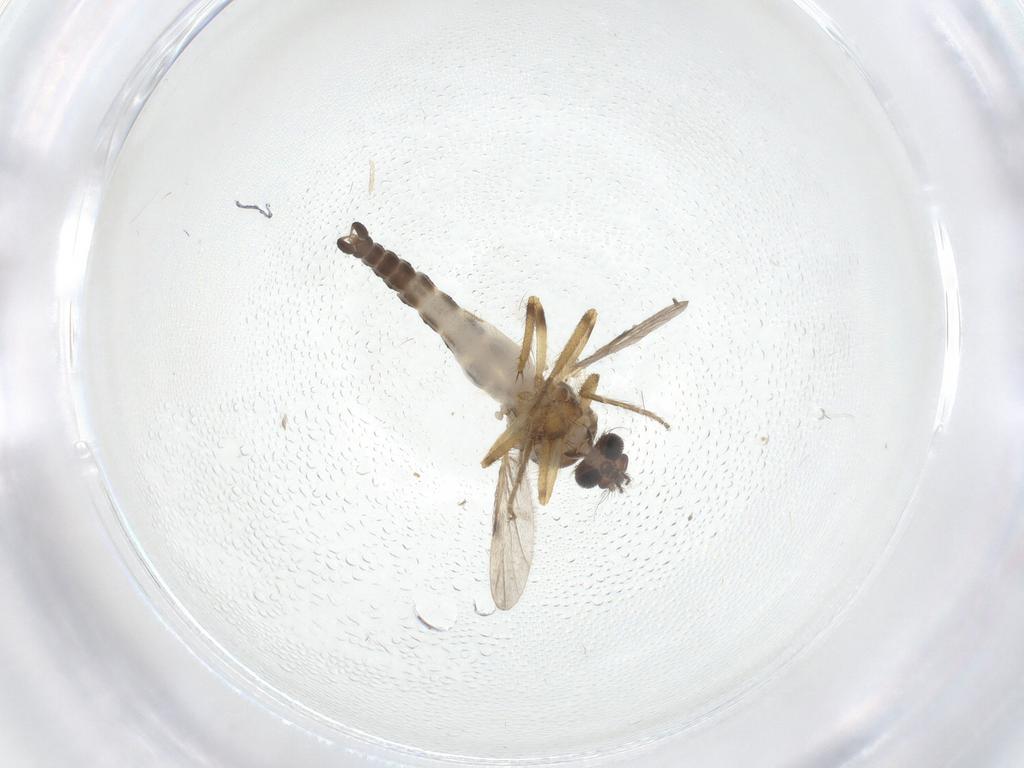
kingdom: Animalia
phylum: Arthropoda
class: Insecta
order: Diptera
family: Ceratopogonidae
